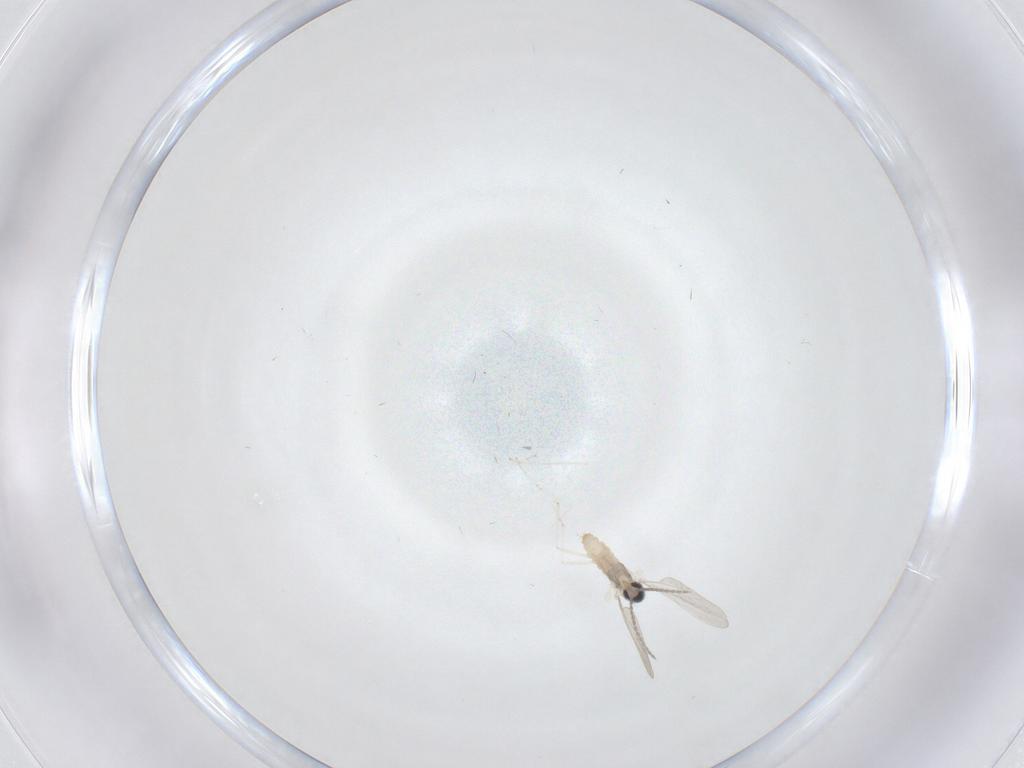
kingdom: Animalia
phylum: Arthropoda
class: Insecta
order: Diptera
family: Cecidomyiidae
